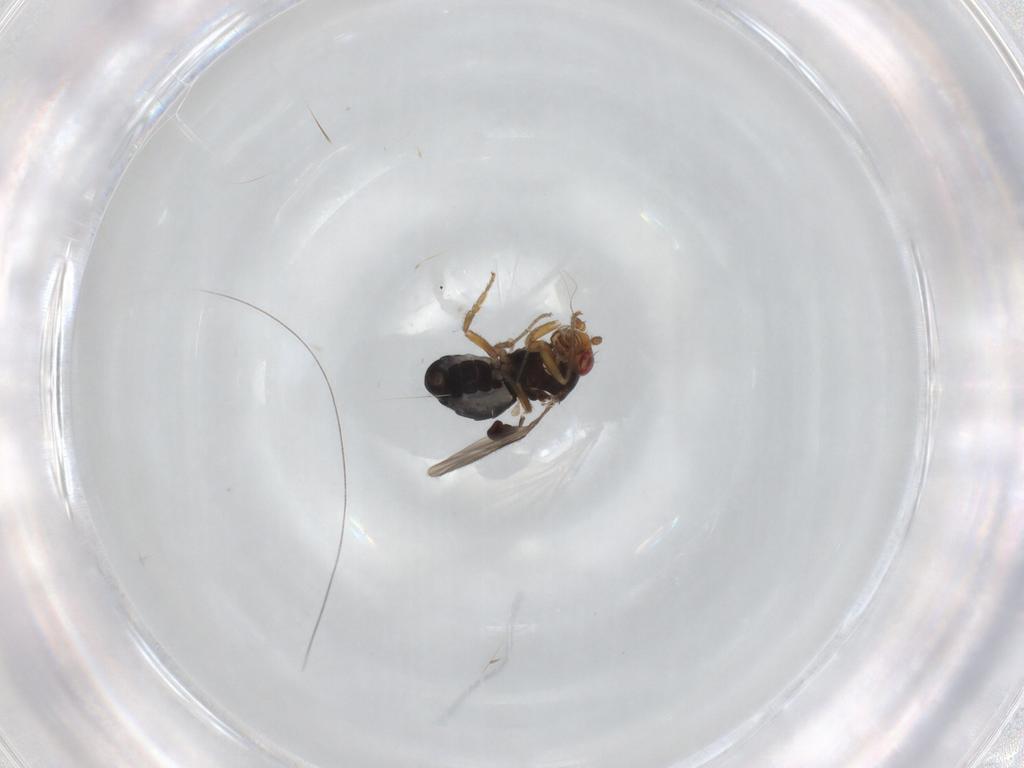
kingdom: Animalia
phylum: Arthropoda
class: Insecta
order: Diptera
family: Sphaeroceridae
